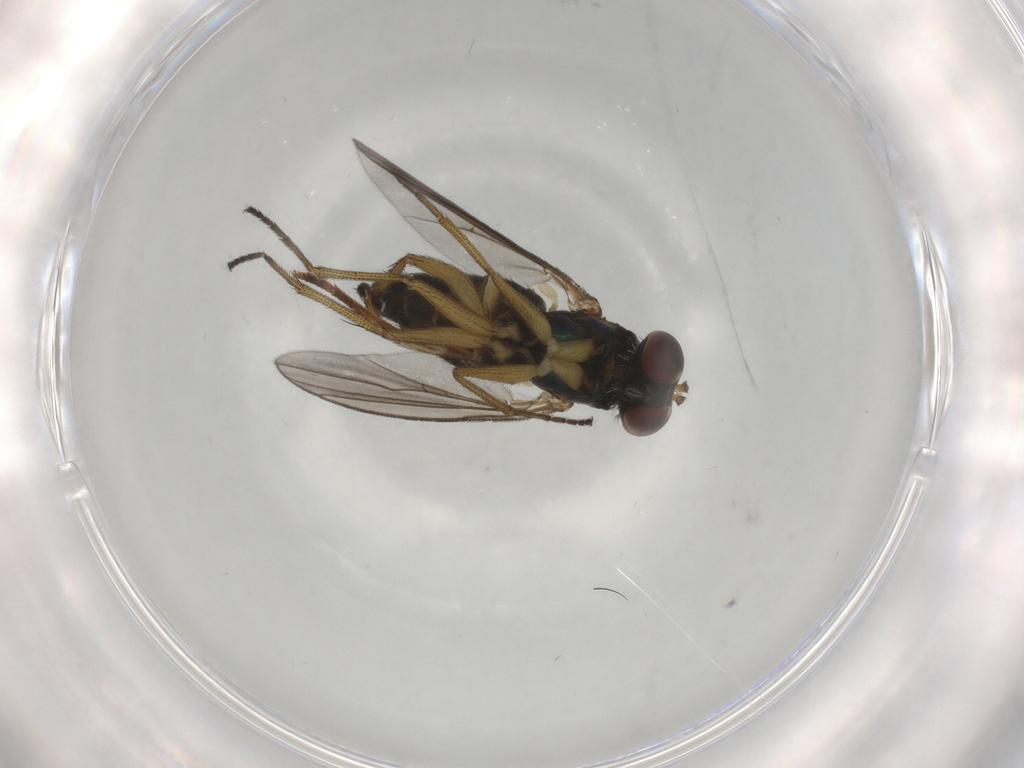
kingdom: Animalia
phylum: Arthropoda
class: Insecta
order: Diptera
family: Dolichopodidae
